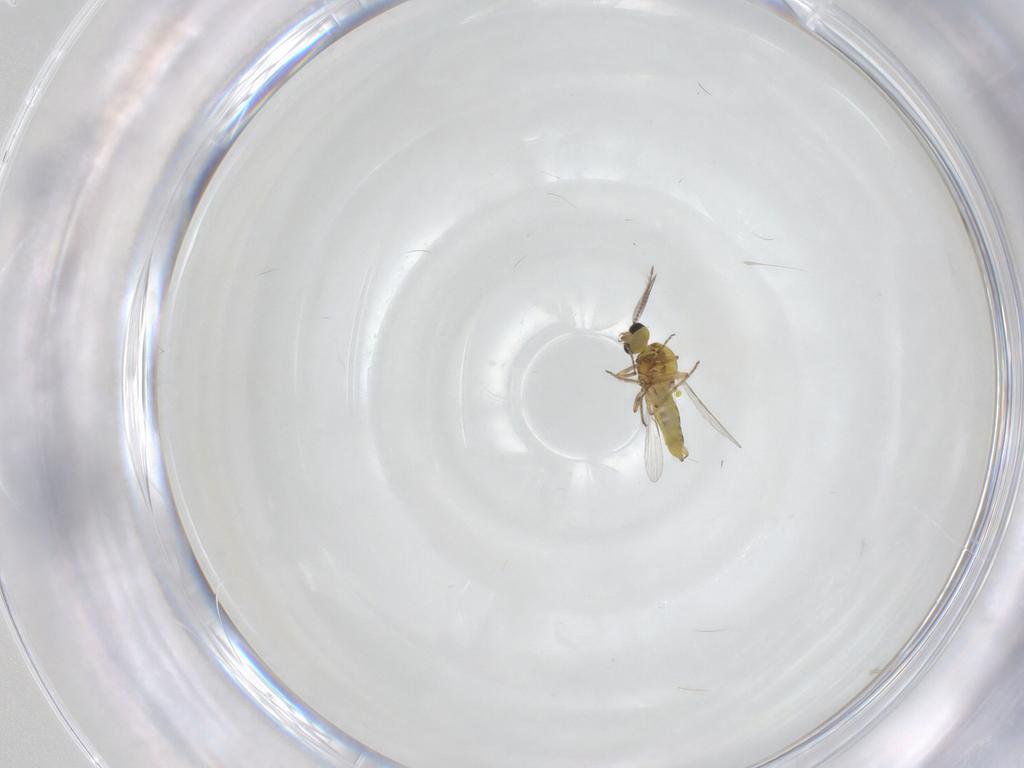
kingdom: Animalia
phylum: Arthropoda
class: Insecta
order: Diptera
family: Ceratopogonidae
